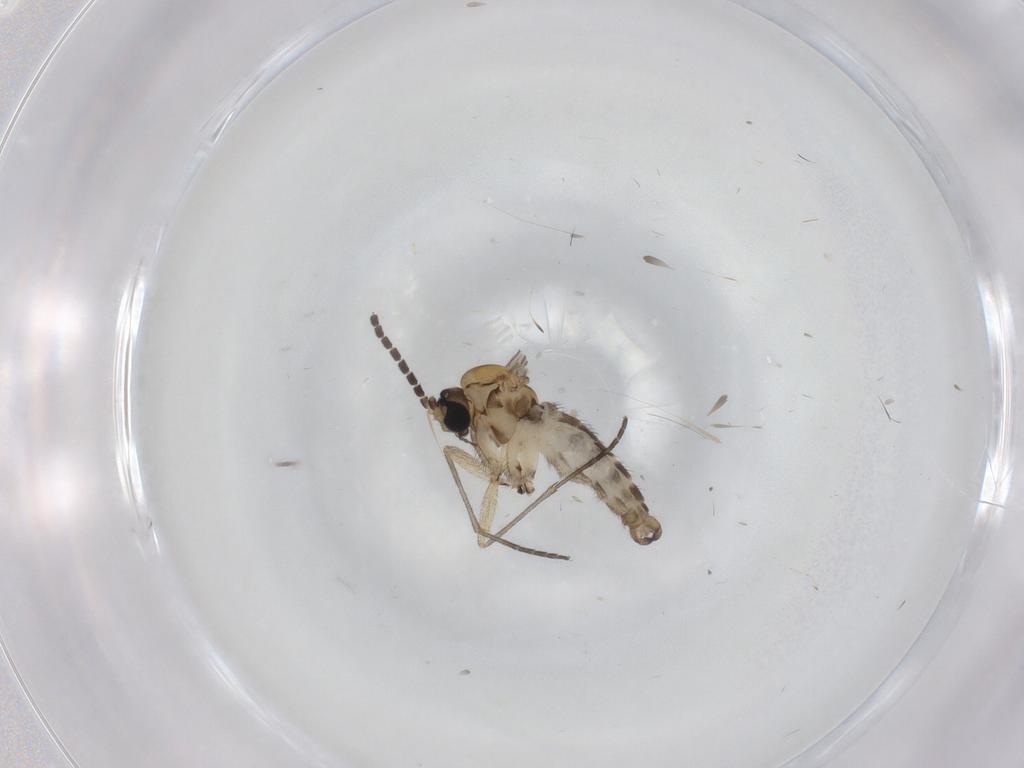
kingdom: Animalia
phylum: Arthropoda
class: Insecta
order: Diptera
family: Sciaridae
